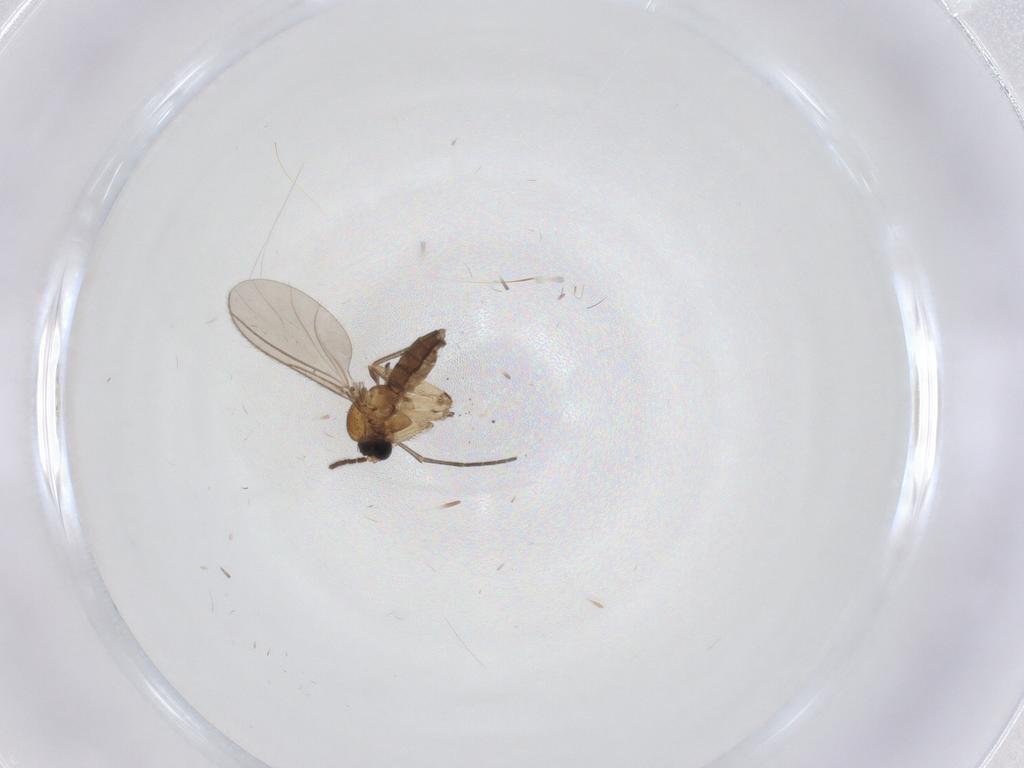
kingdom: Animalia
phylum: Arthropoda
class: Insecta
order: Diptera
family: Sciaridae
